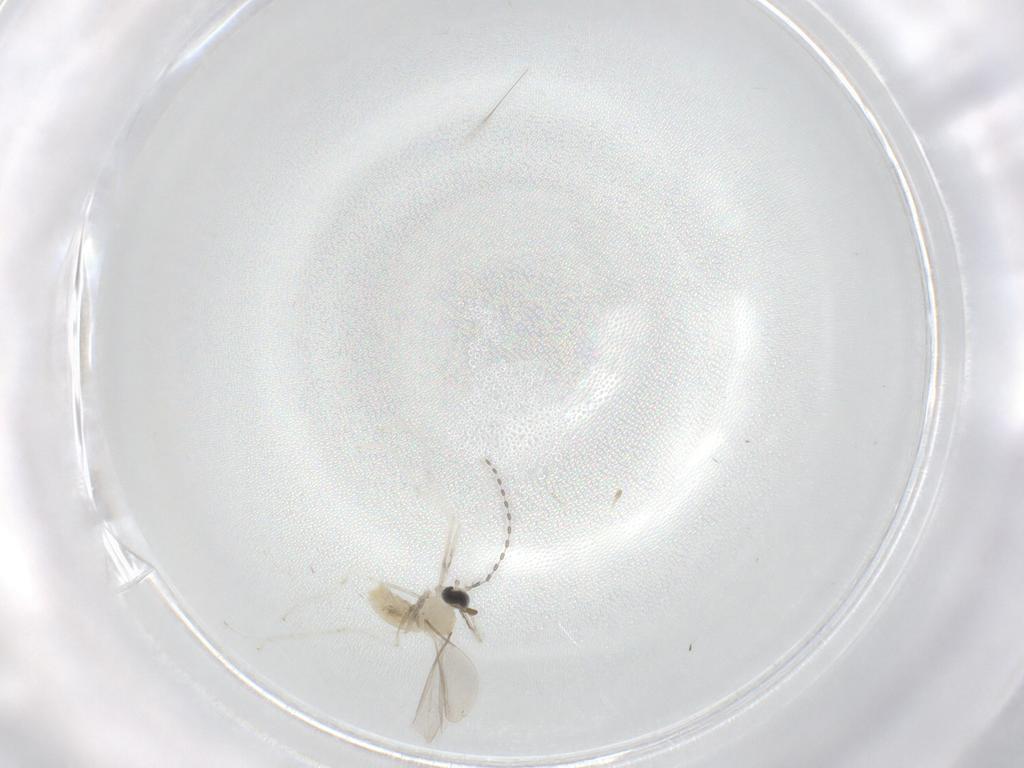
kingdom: Animalia
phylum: Arthropoda
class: Insecta
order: Diptera
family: Cecidomyiidae
